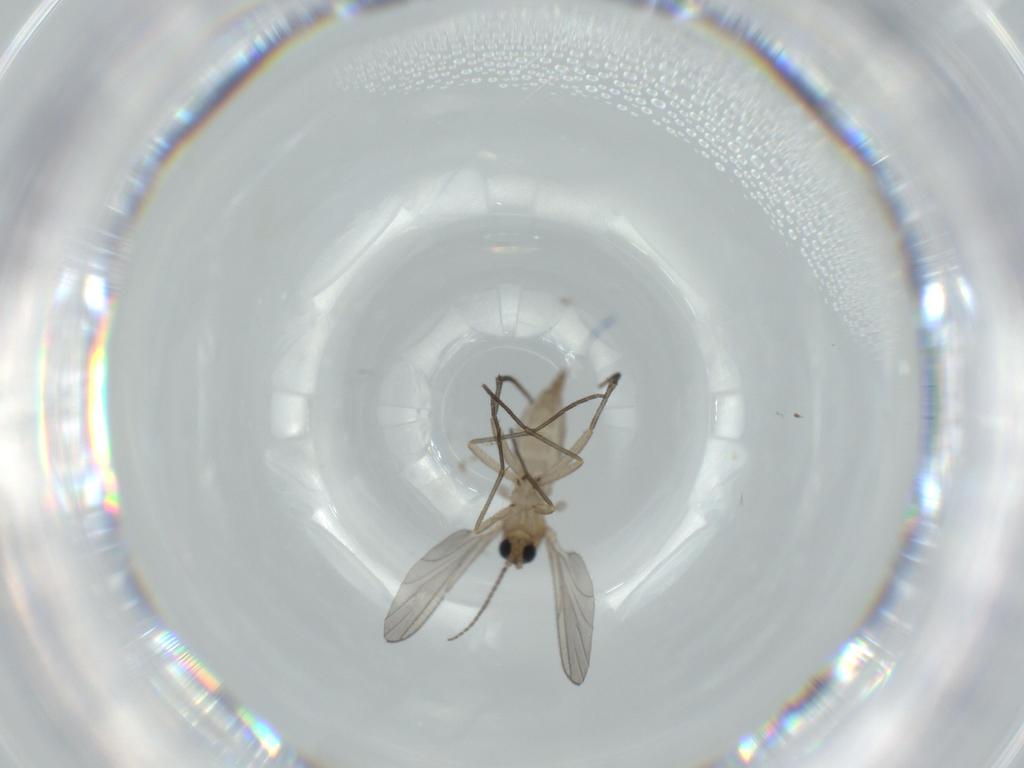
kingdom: Animalia
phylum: Arthropoda
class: Insecta
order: Diptera
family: Sciaridae
